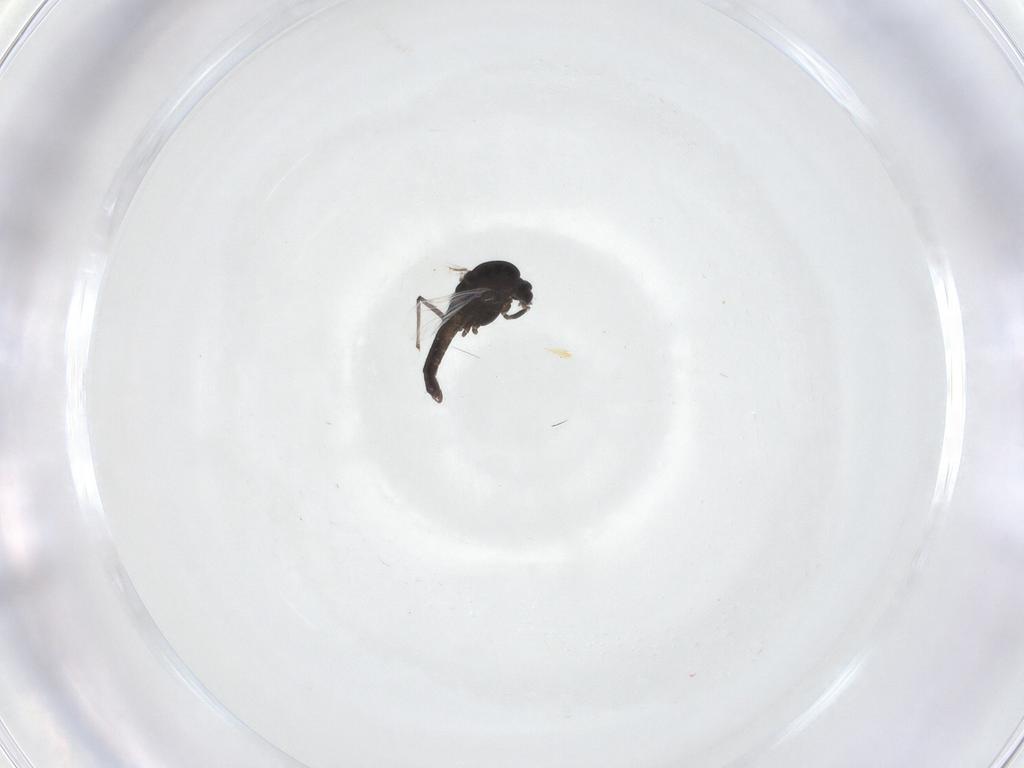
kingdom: Animalia
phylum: Arthropoda
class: Insecta
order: Diptera
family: Chironomidae
